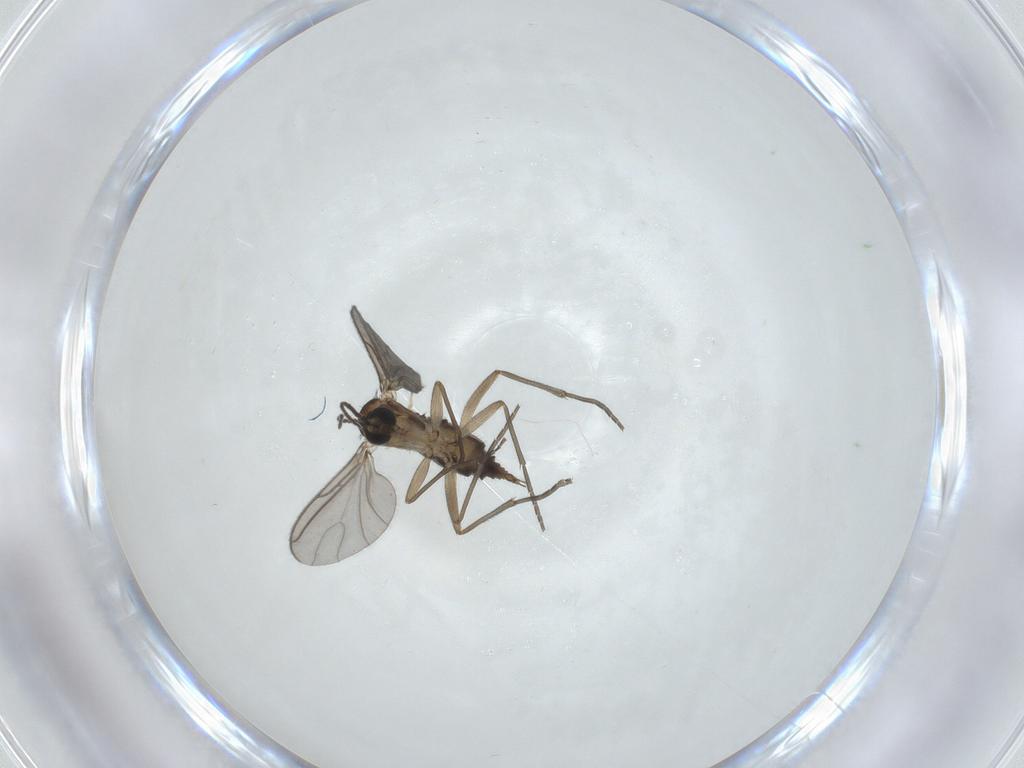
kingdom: Animalia
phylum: Arthropoda
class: Insecta
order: Diptera
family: Sciaridae
